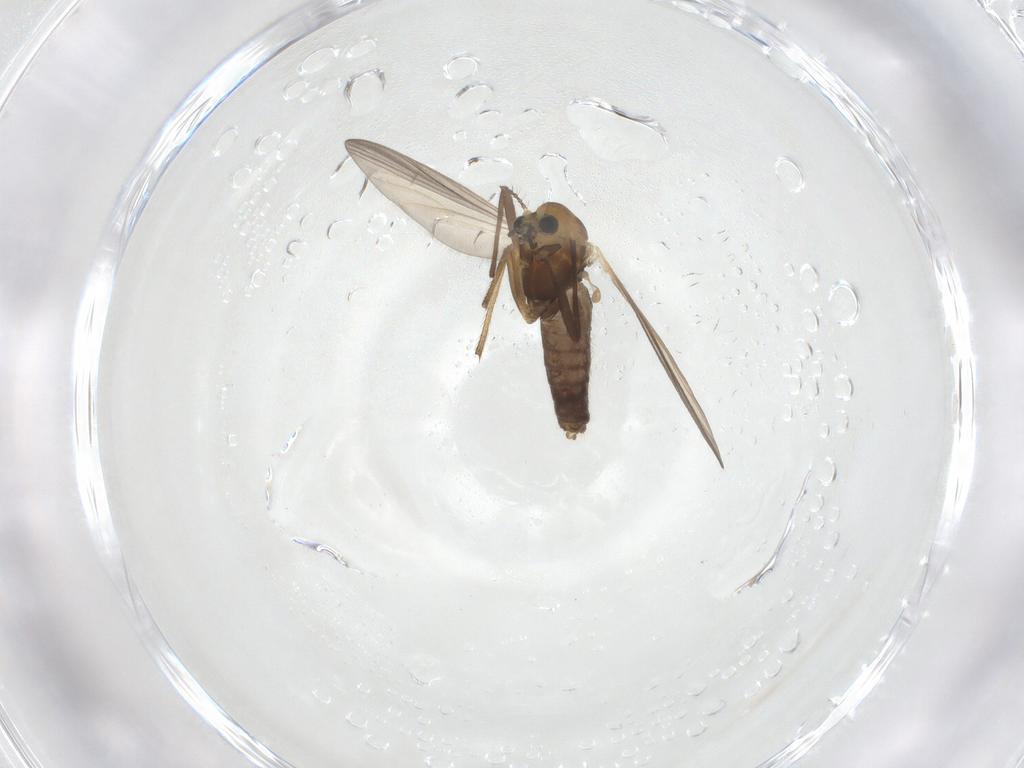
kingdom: Animalia
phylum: Arthropoda
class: Insecta
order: Diptera
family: Chironomidae
